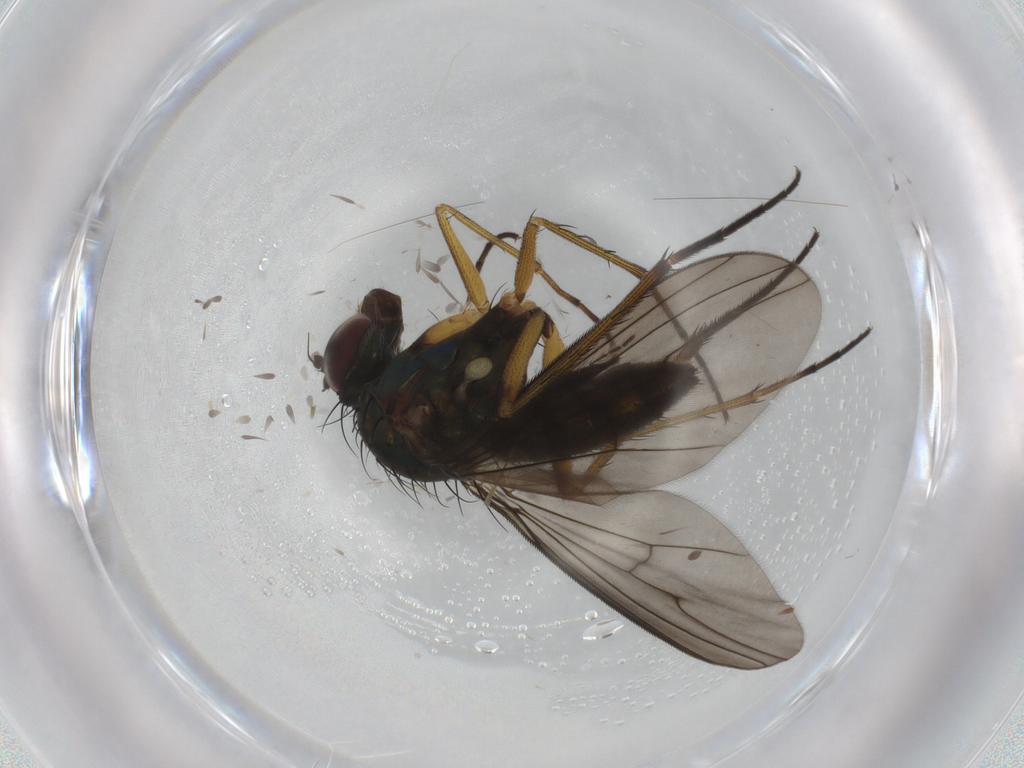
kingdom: Animalia
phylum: Arthropoda
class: Insecta
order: Diptera
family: Dolichopodidae
